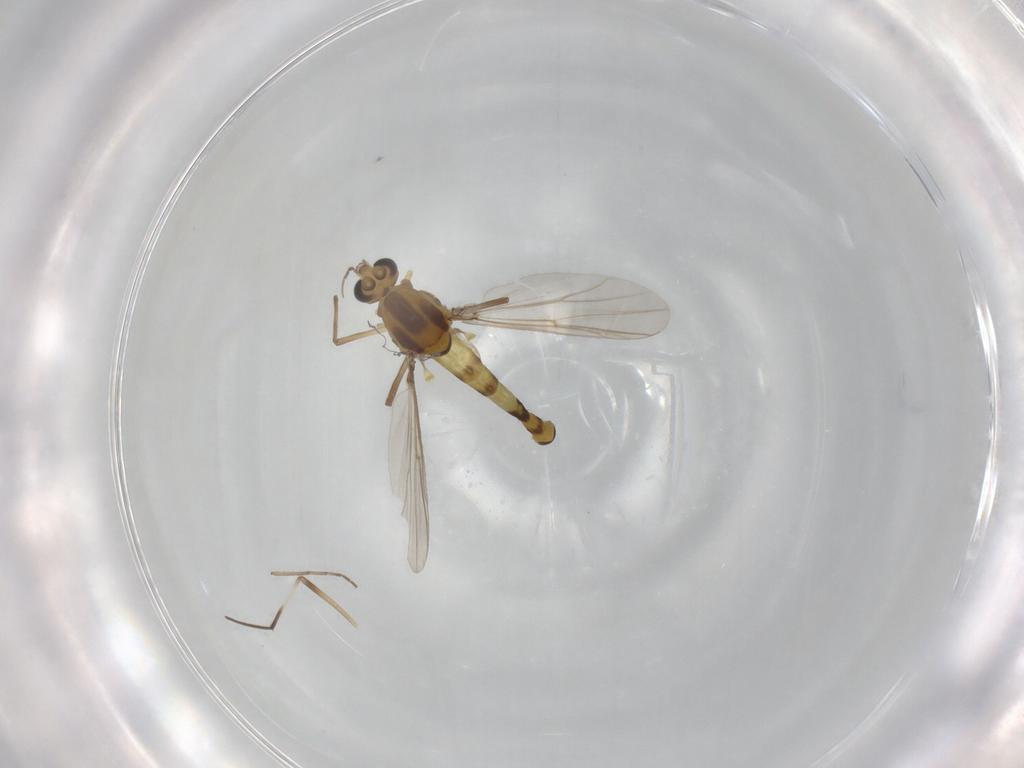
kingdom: Animalia
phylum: Arthropoda
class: Insecta
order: Diptera
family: Chironomidae
